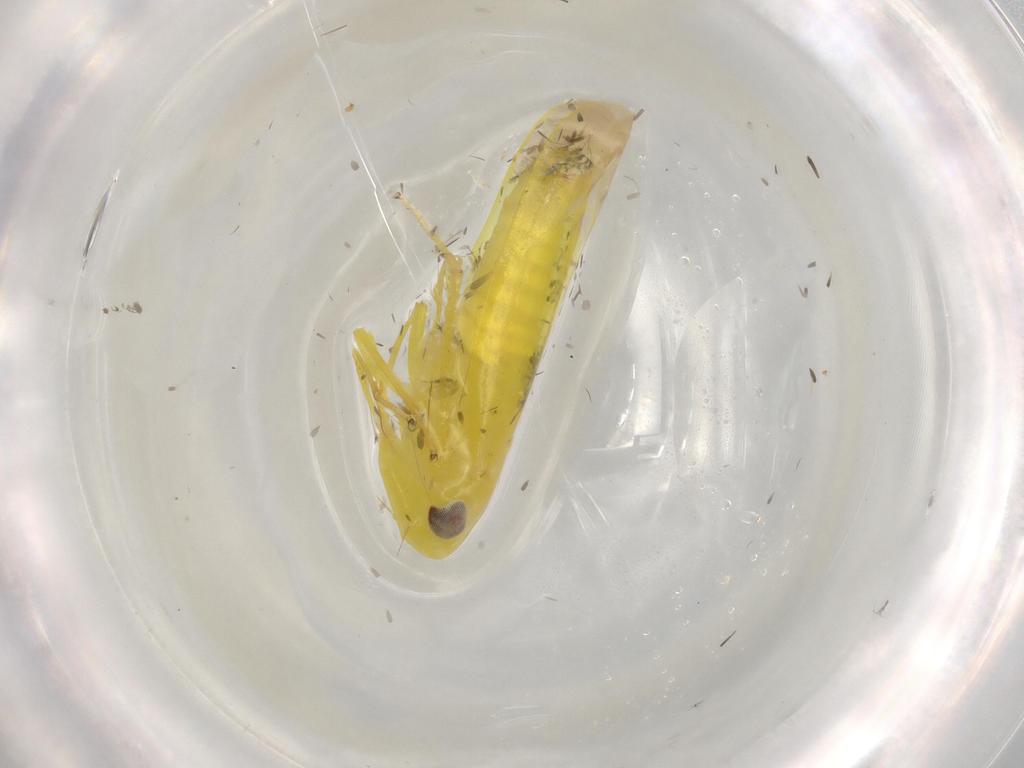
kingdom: Animalia
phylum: Arthropoda
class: Insecta
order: Hemiptera
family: Cicadellidae
